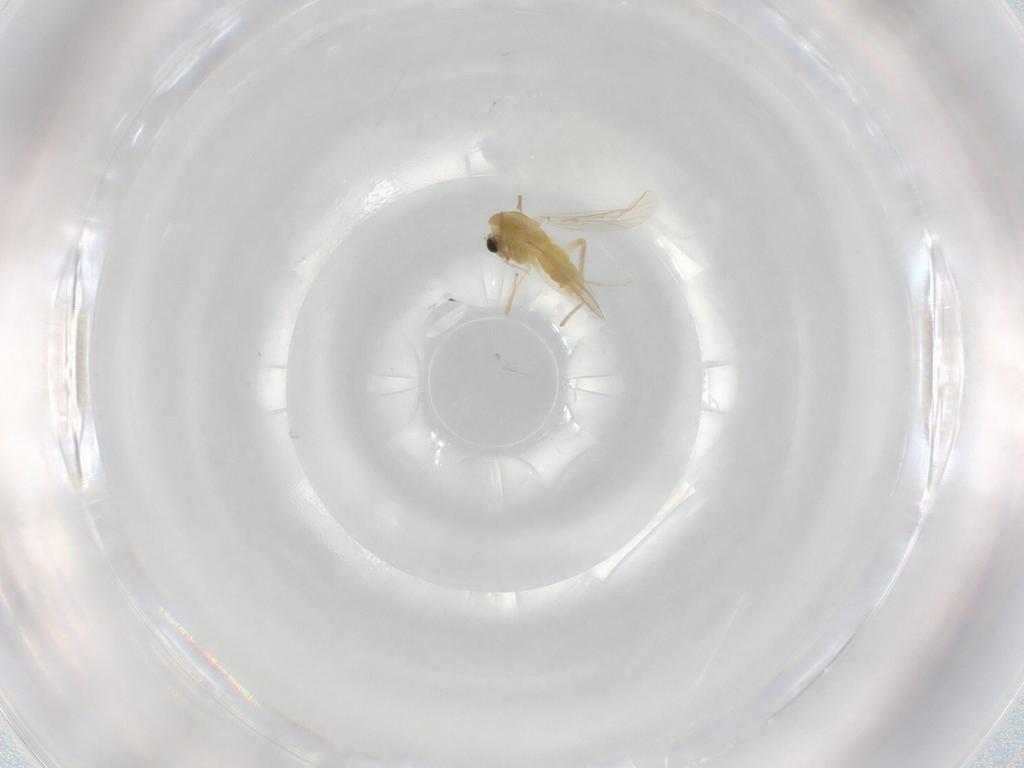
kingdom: Animalia
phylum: Arthropoda
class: Insecta
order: Diptera
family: Chironomidae
